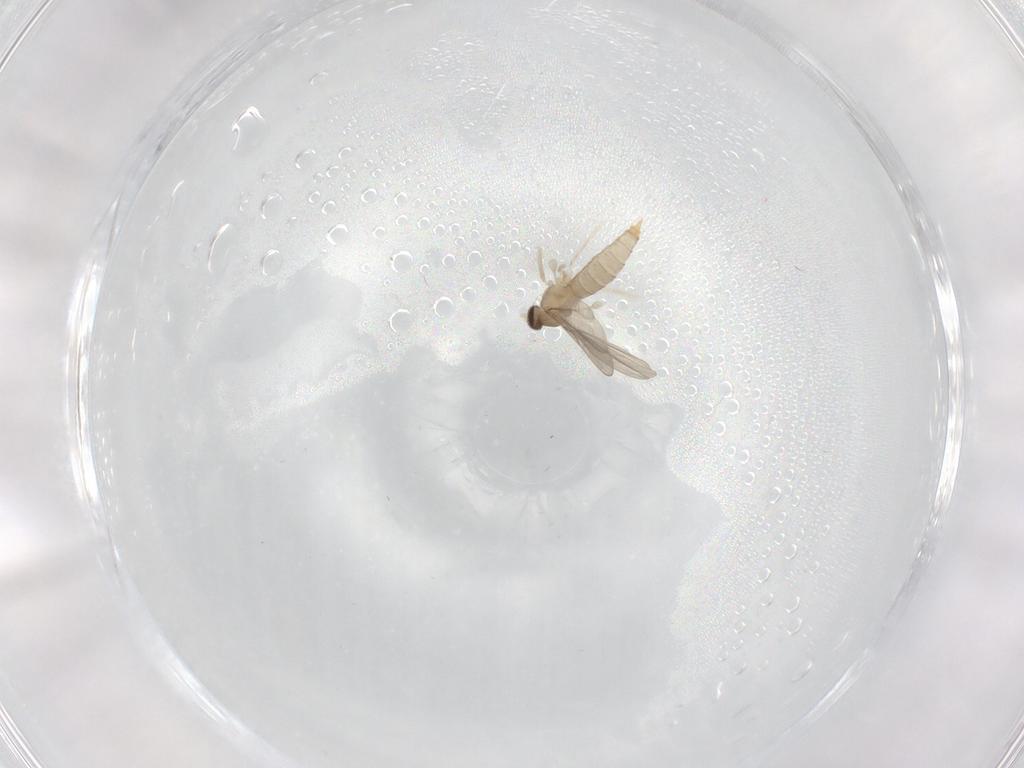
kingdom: Animalia
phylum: Arthropoda
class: Insecta
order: Diptera
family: Cecidomyiidae
